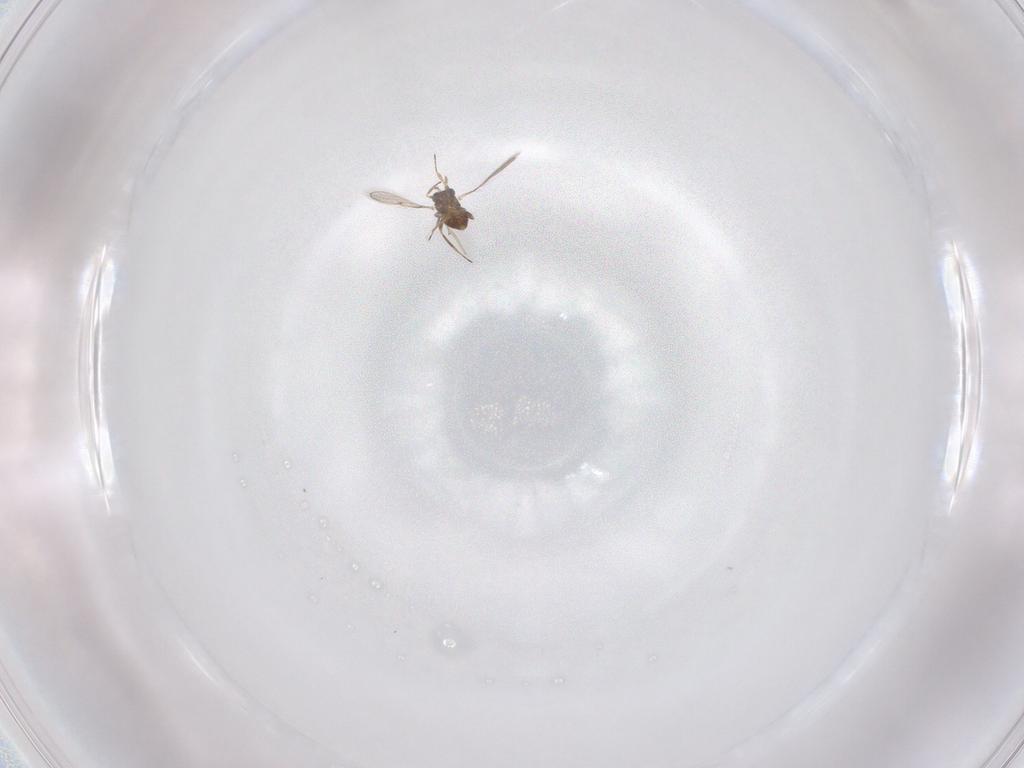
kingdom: Animalia
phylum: Arthropoda
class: Insecta
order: Hymenoptera
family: Trichogrammatidae
